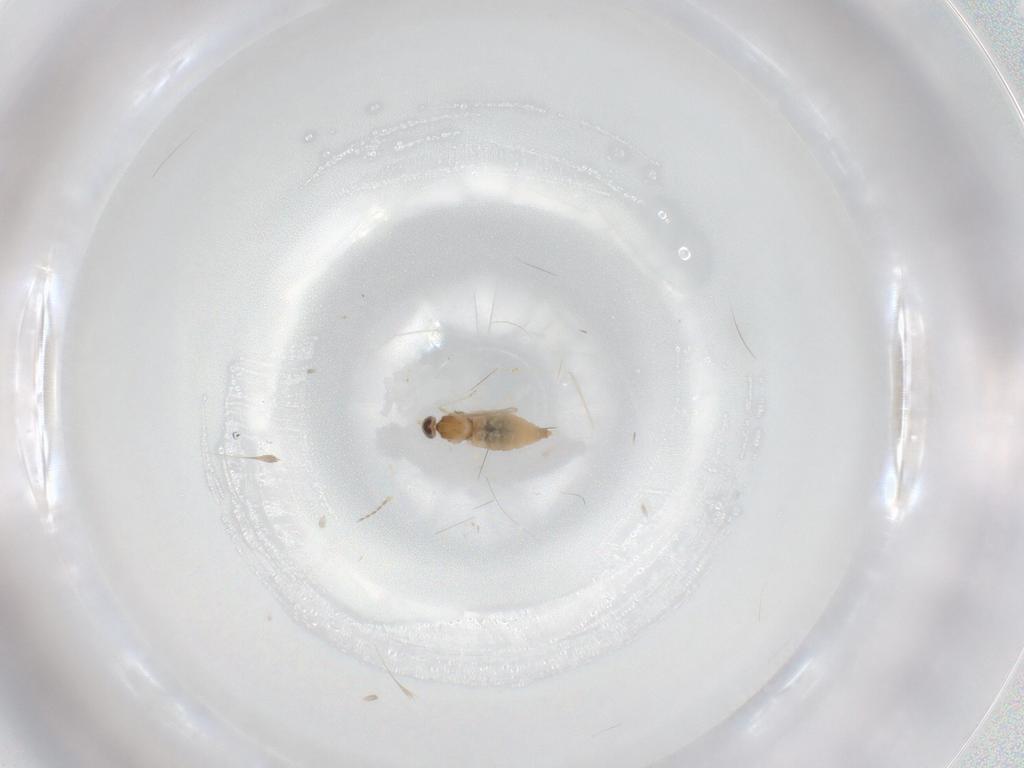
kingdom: Animalia
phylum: Arthropoda
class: Insecta
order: Diptera
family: Cecidomyiidae
